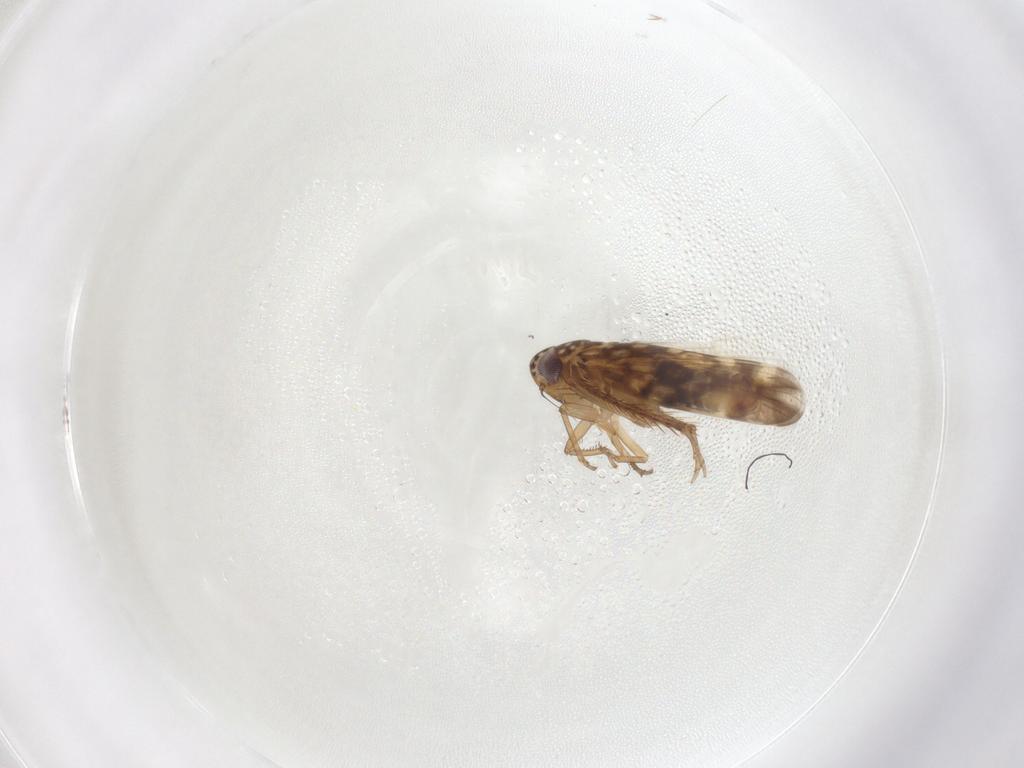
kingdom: Animalia
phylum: Arthropoda
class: Insecta
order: Hemiptera
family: Cicadellidae
